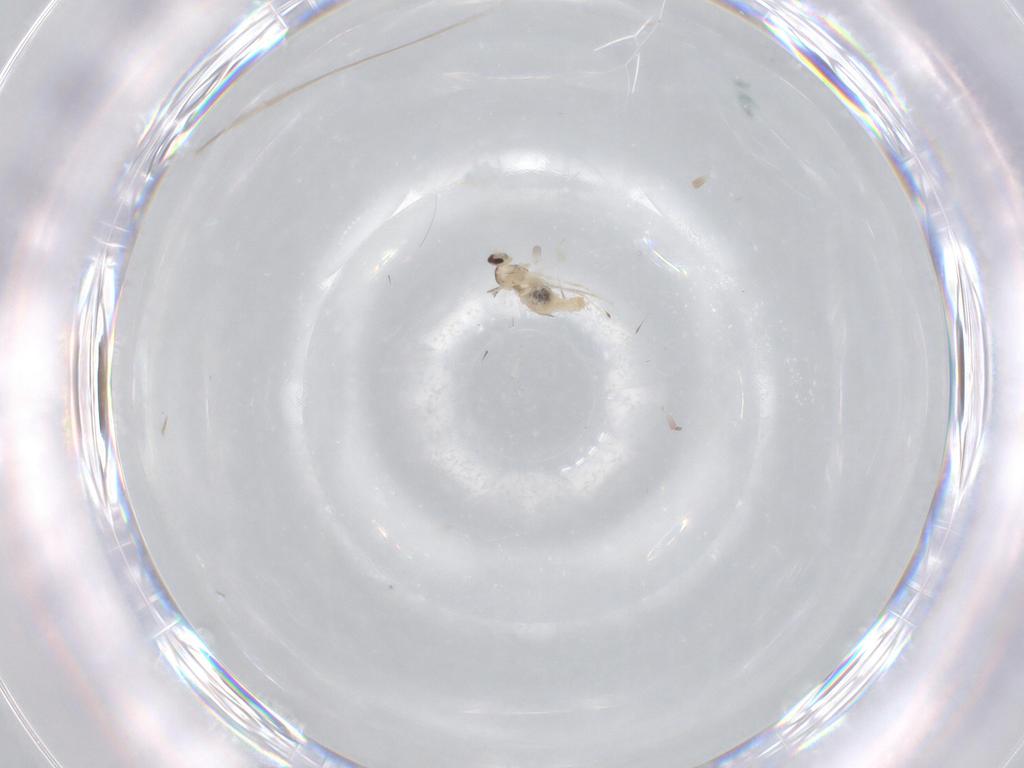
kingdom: Animalia
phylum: Arthropoda
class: Insecta
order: Diptera
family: Cecidomyiidae
